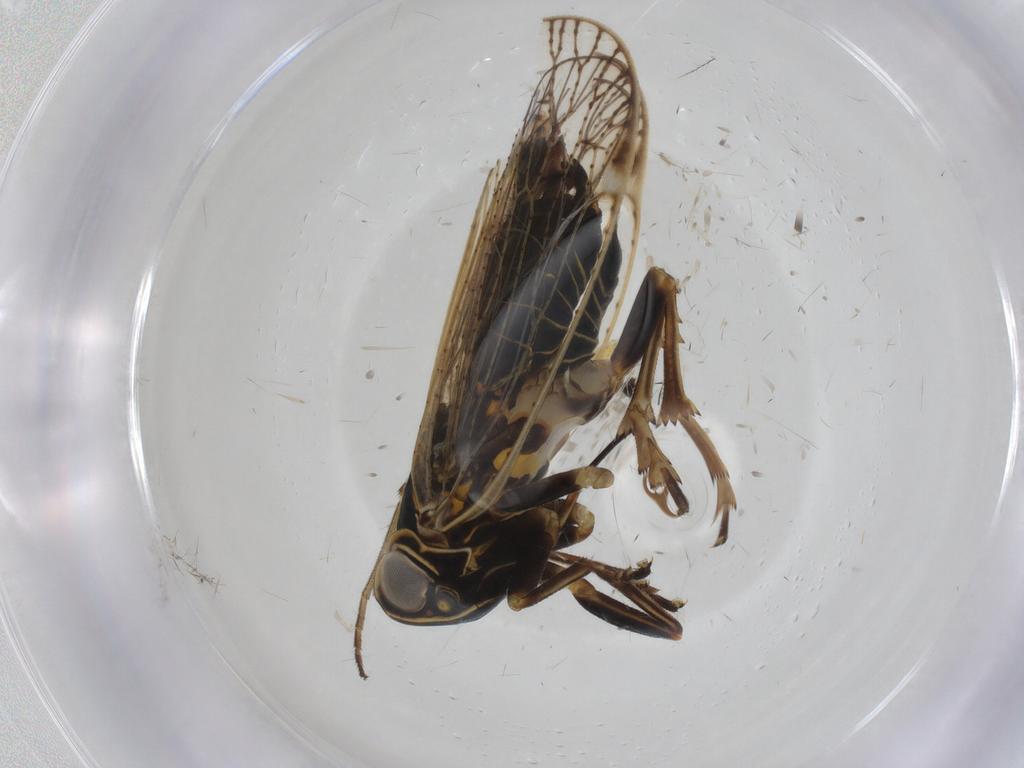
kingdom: Animalia
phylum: Arthropoda
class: Insecta
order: Hemiptera
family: Cixiidae
